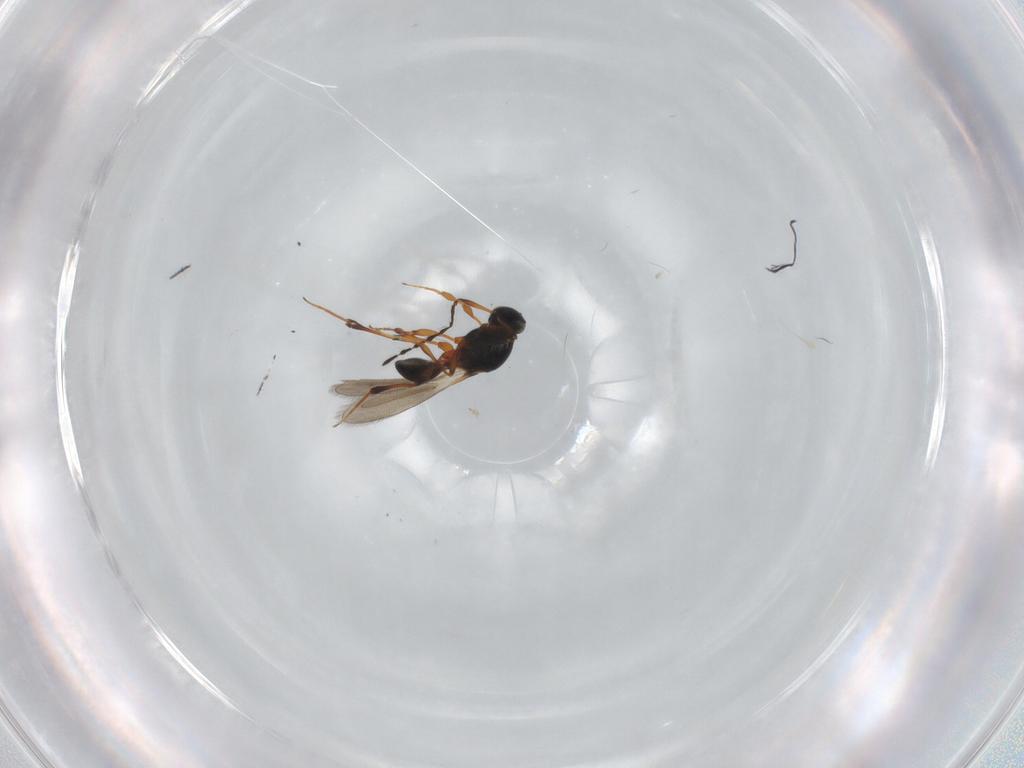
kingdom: Animalia
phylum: Arthropoda
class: Insecta
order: Hymenoptera
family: Platygastridae
